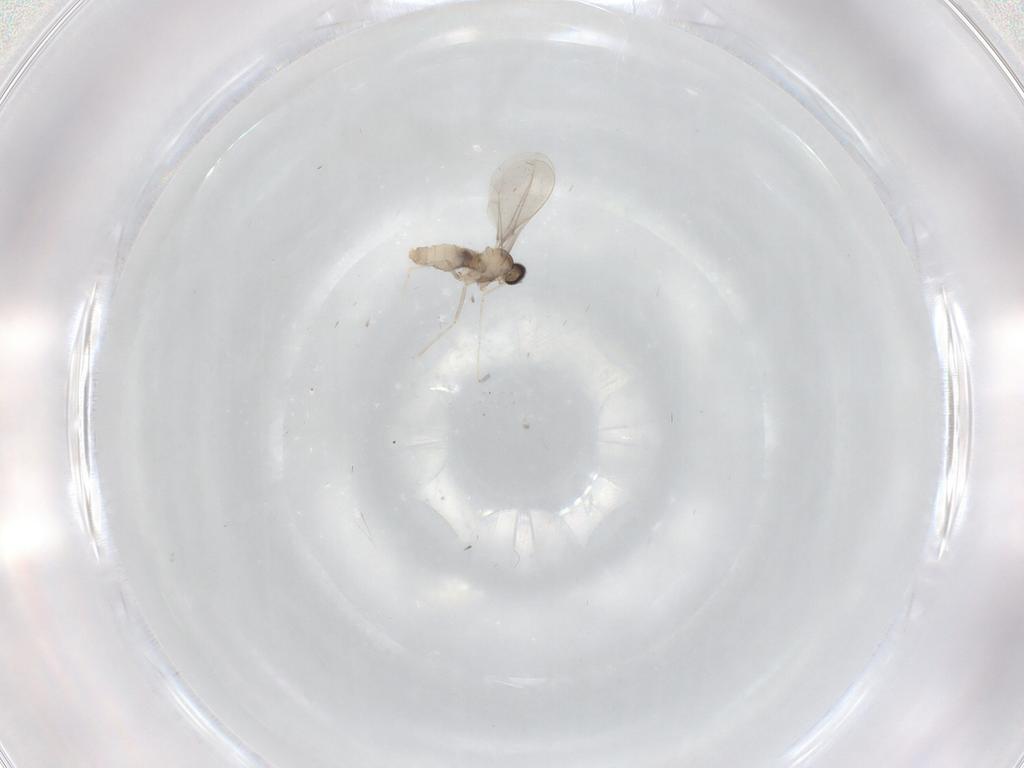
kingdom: Animalia
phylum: Arthropoda
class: Insecta
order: Diptera
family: Cecidomyiidae
